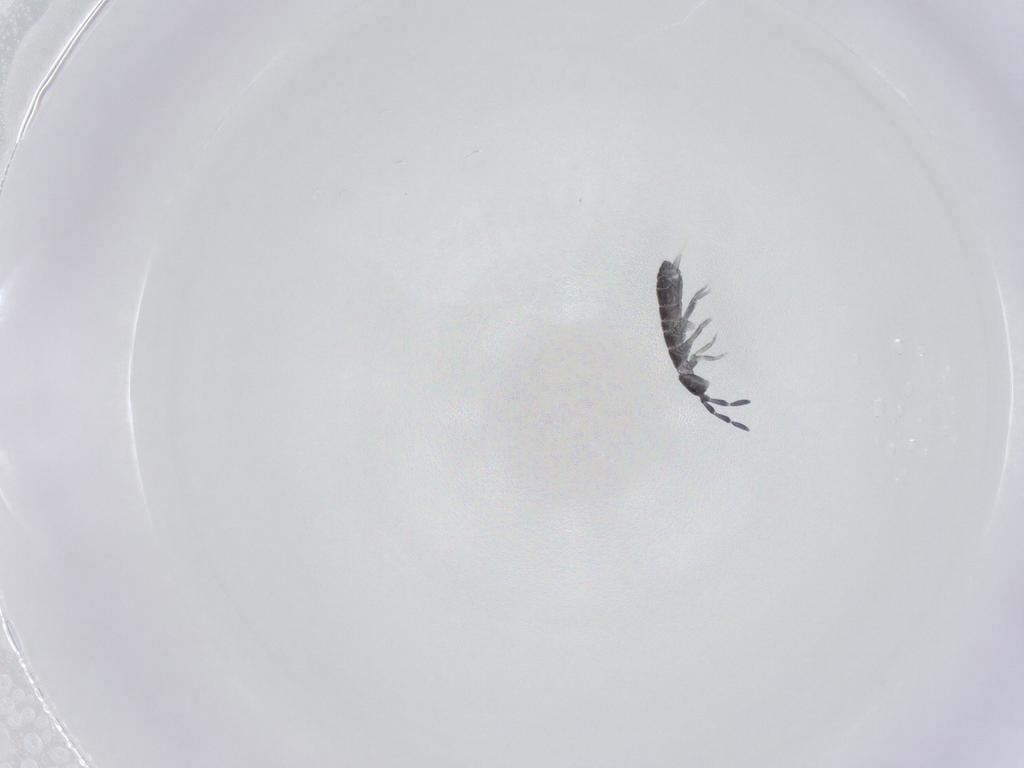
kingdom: Animalia
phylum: Arthropoda
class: Collembola
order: Entomobryomorpha
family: Isotomidae
